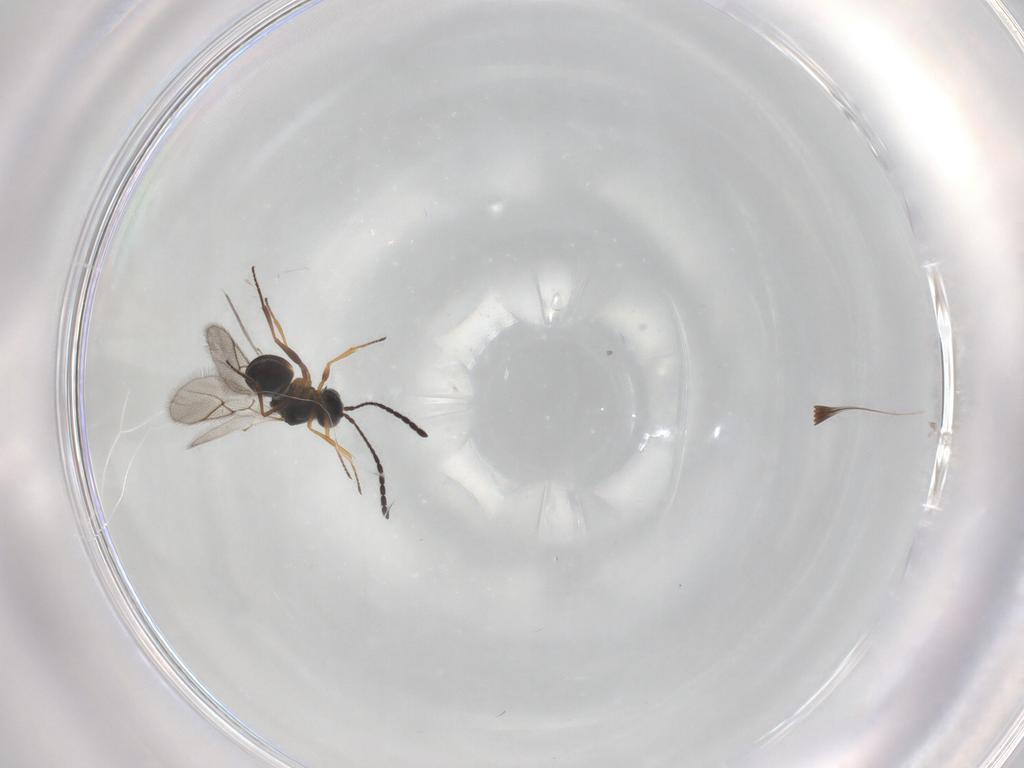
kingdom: Animalia
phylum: Arthropoda
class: Insecta
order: Hymenoptera
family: Figitidae
